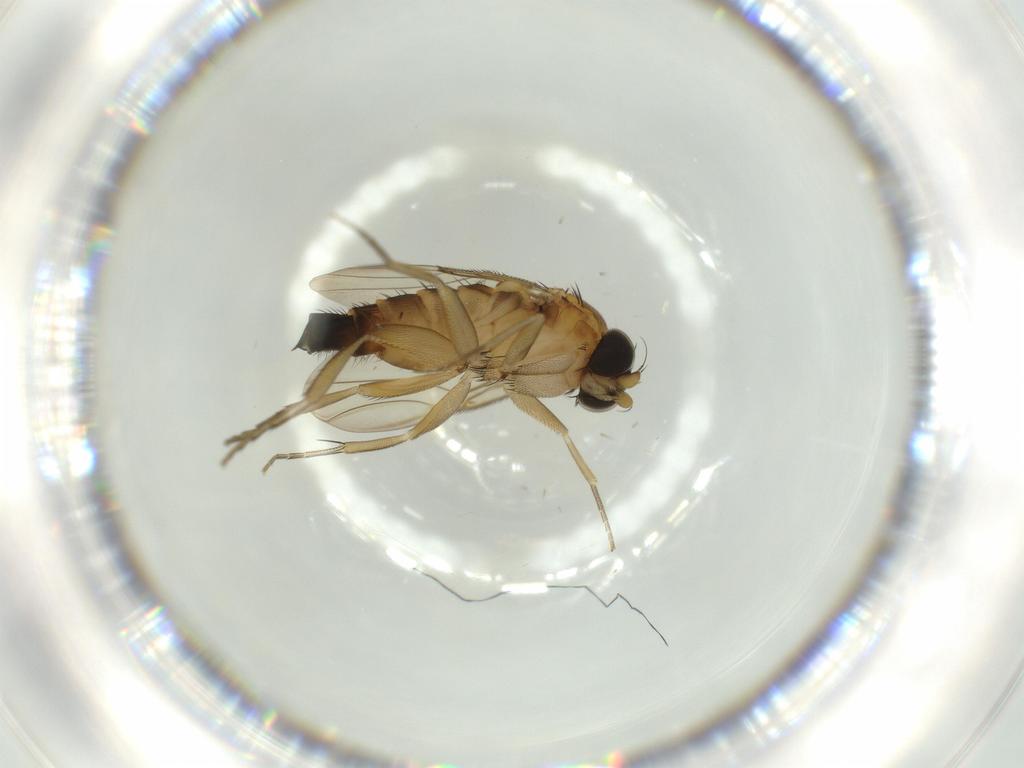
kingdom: Animalia
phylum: Arthropoda
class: Insecta
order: Diptera
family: Phoridae
